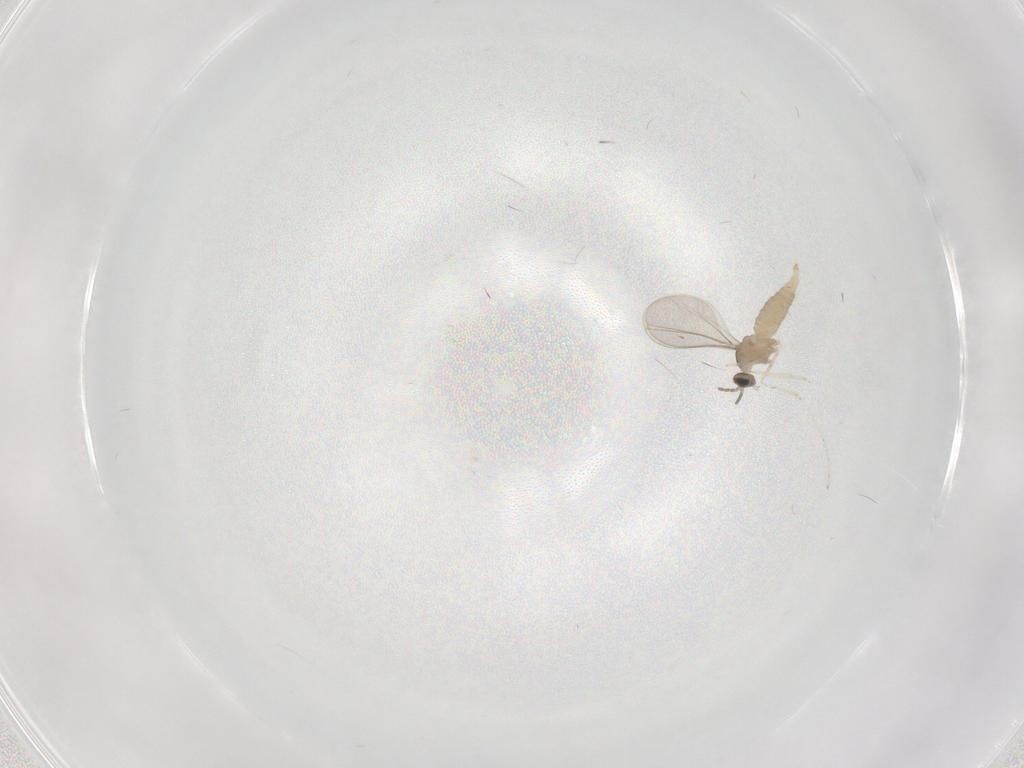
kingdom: Animalia
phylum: Arthropoda
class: Insecta
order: Diptera
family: Cecidomyiidae
